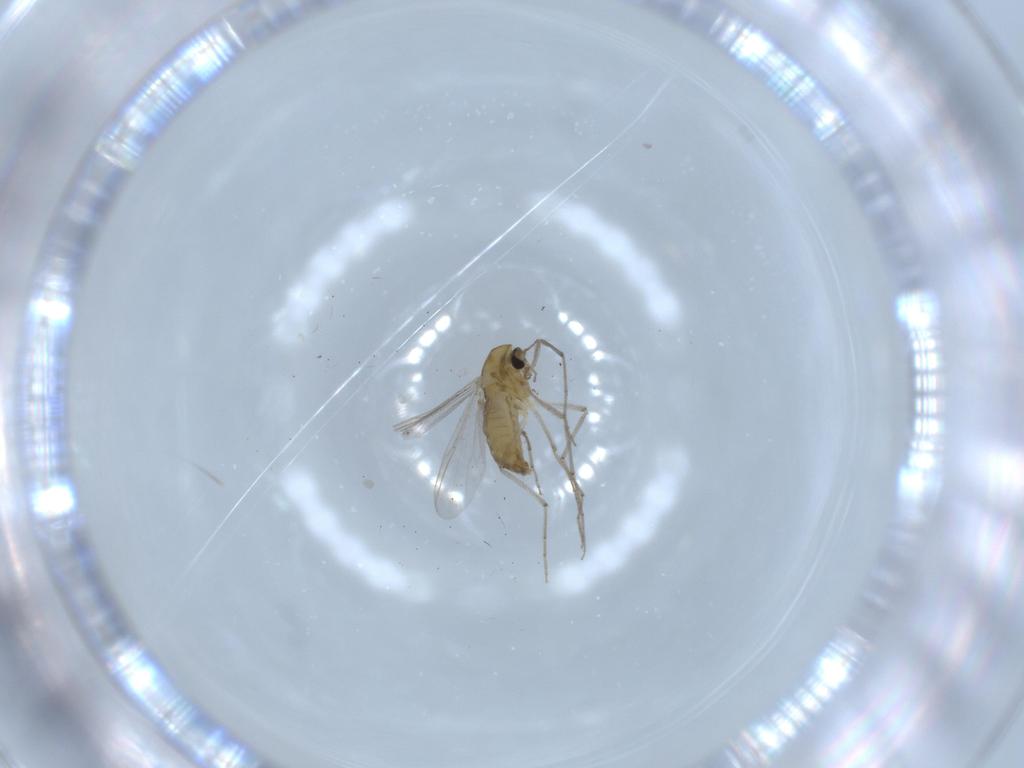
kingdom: Animalia
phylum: Arthropoda
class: Insecta
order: Diptera
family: Chironomidae
